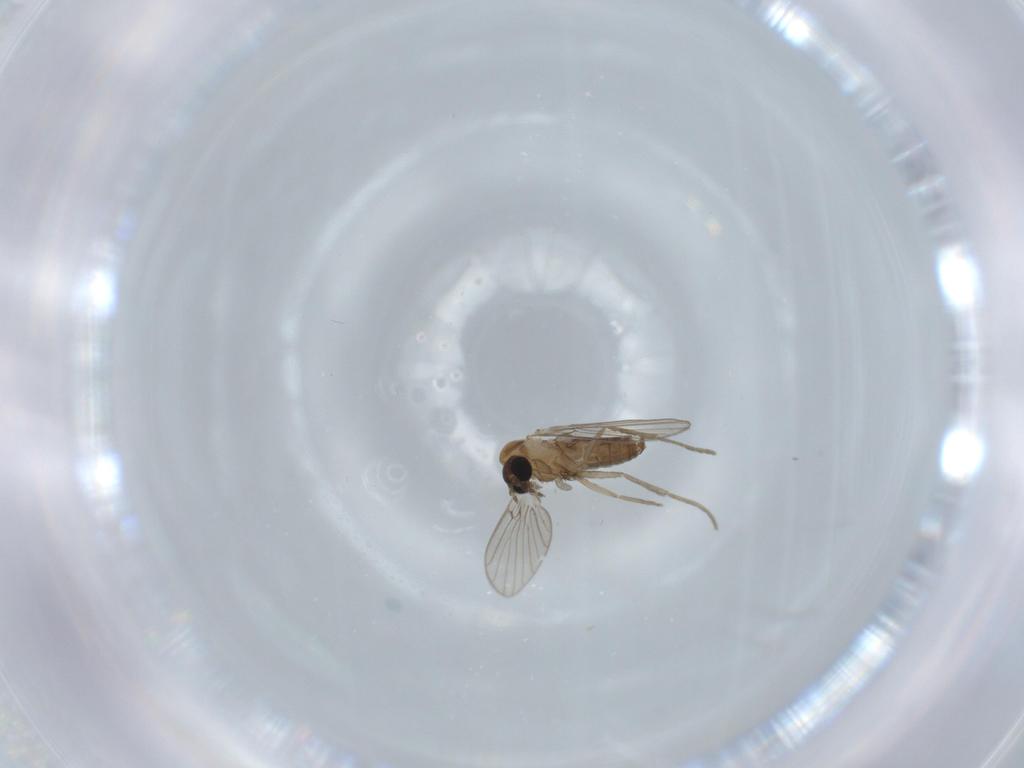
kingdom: Animalia
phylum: Arthropoda
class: Insecta
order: Diptera
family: Psychodidae
